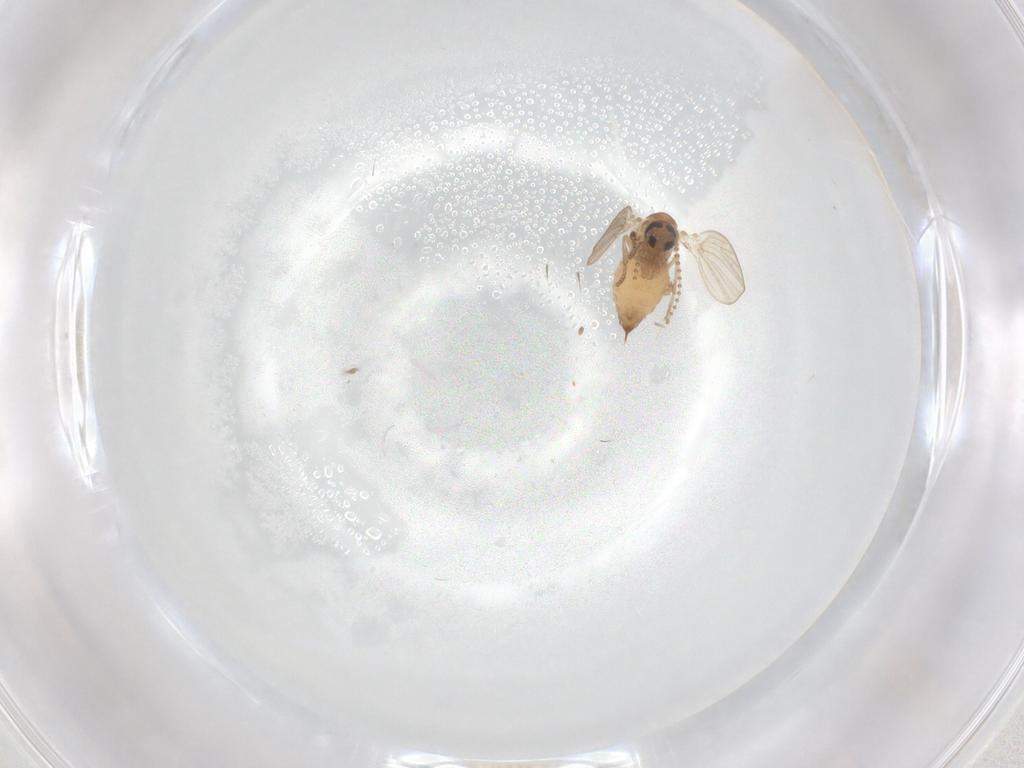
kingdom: Animalia
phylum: Arthropoda
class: Insecta
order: Diptera
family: Psychodidae
